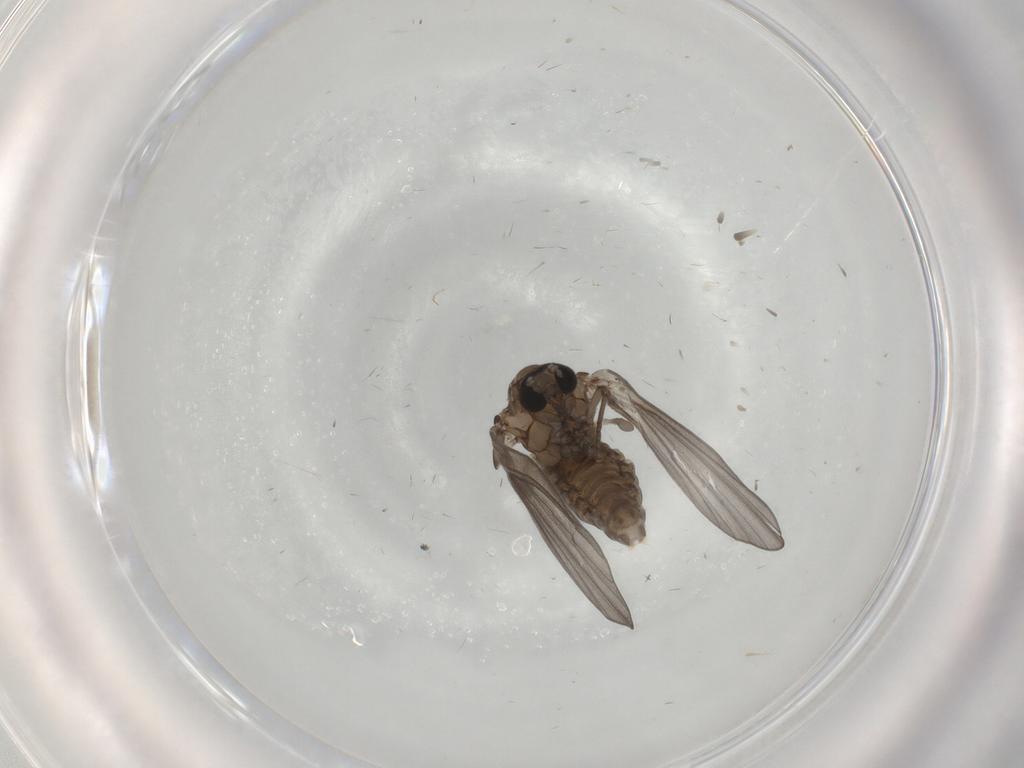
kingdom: Animalia
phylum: Arthropoda
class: Insecta
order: Diptera
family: Psychodidae
